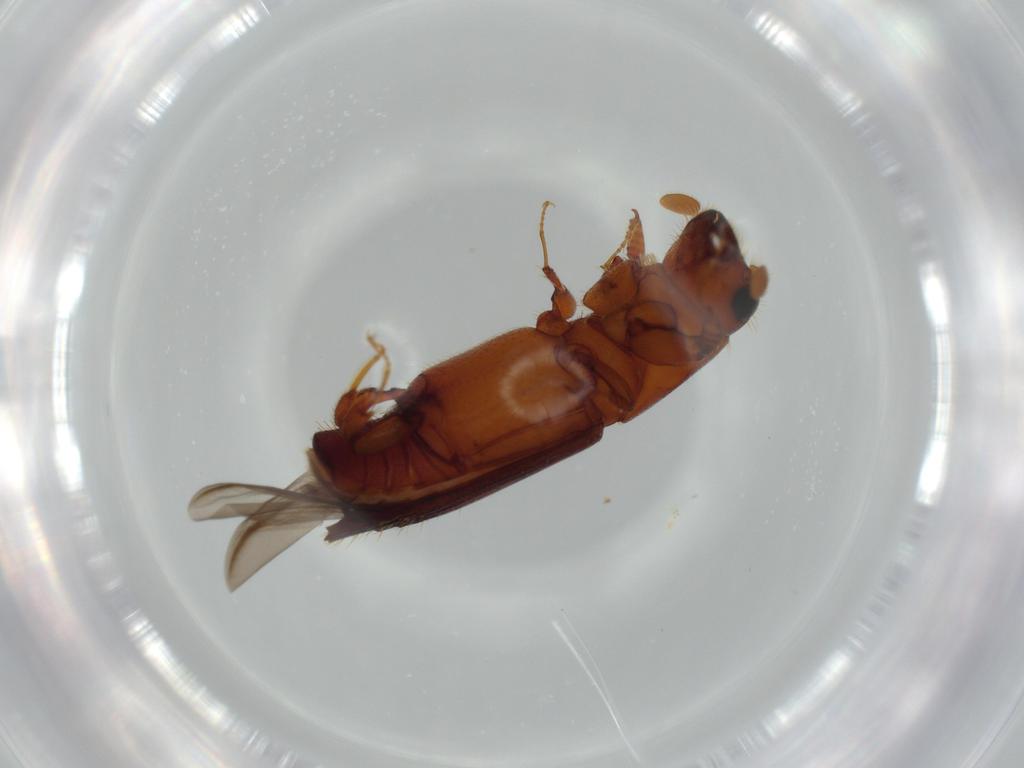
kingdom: Animalia
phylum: Arthropoda
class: Insecta
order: Coleoptera
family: Curculionidae
